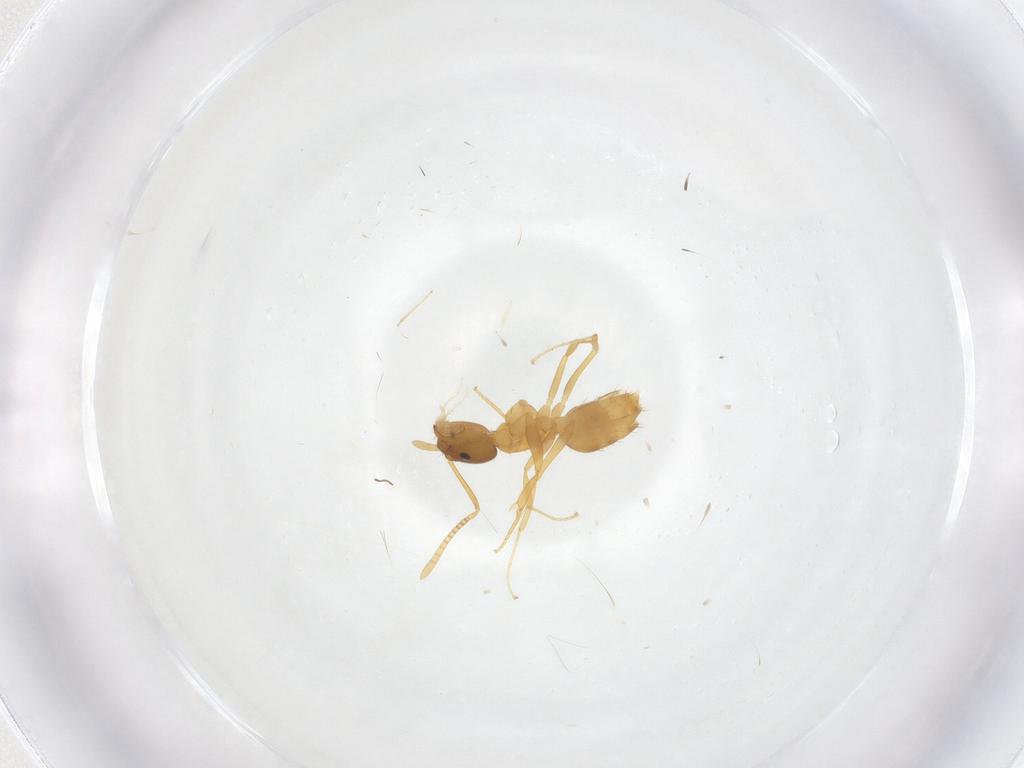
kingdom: Animalia
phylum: Arthropoda
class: Insecta
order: Hymenoptera
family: Formicidae
